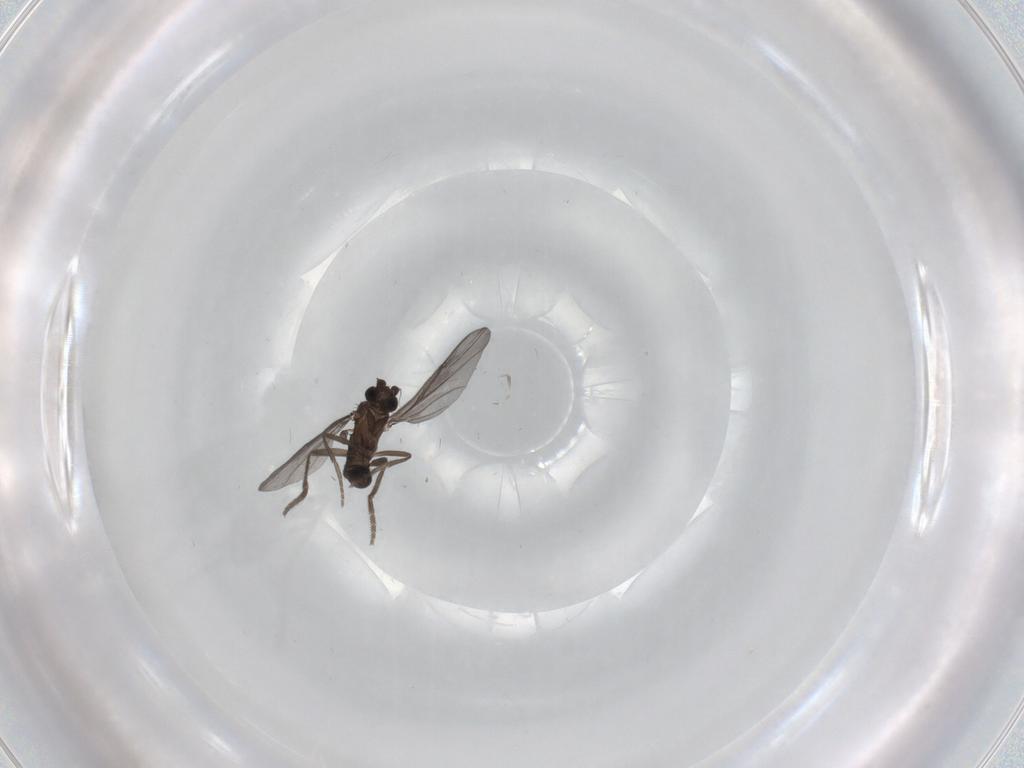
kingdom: Animalia
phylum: Arthropoda
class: Insecta
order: Diptera
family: Phoridae
